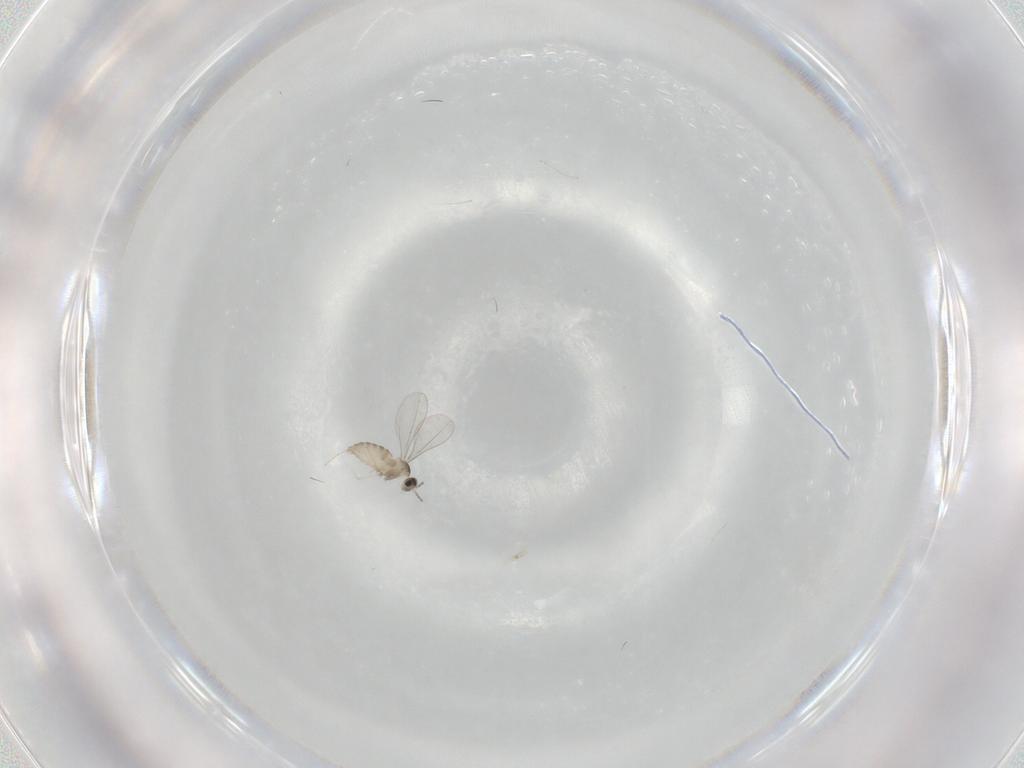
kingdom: Animalia
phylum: Arthropoda
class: Insecta
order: Diptera
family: Cecidomyiidae
